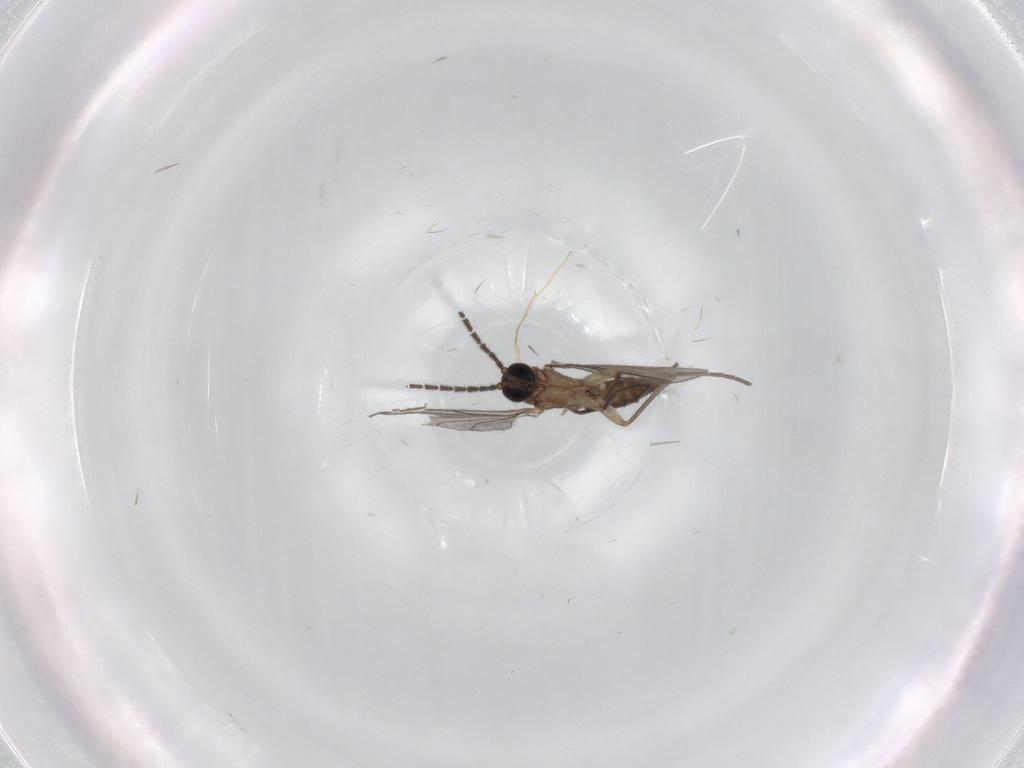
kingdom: Animalia
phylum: Arthropoda
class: Insecta
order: Diptera
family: Sciaridae
